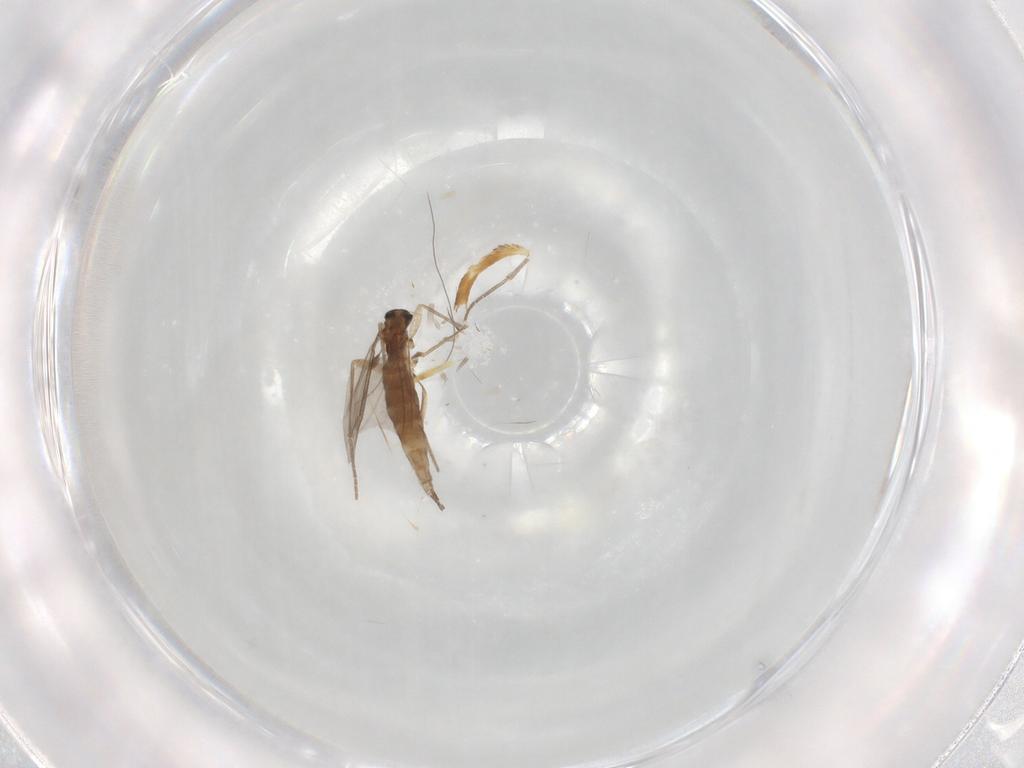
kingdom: Animalia
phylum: Arthropoda
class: Insecta
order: Diptera
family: Sciaridae
